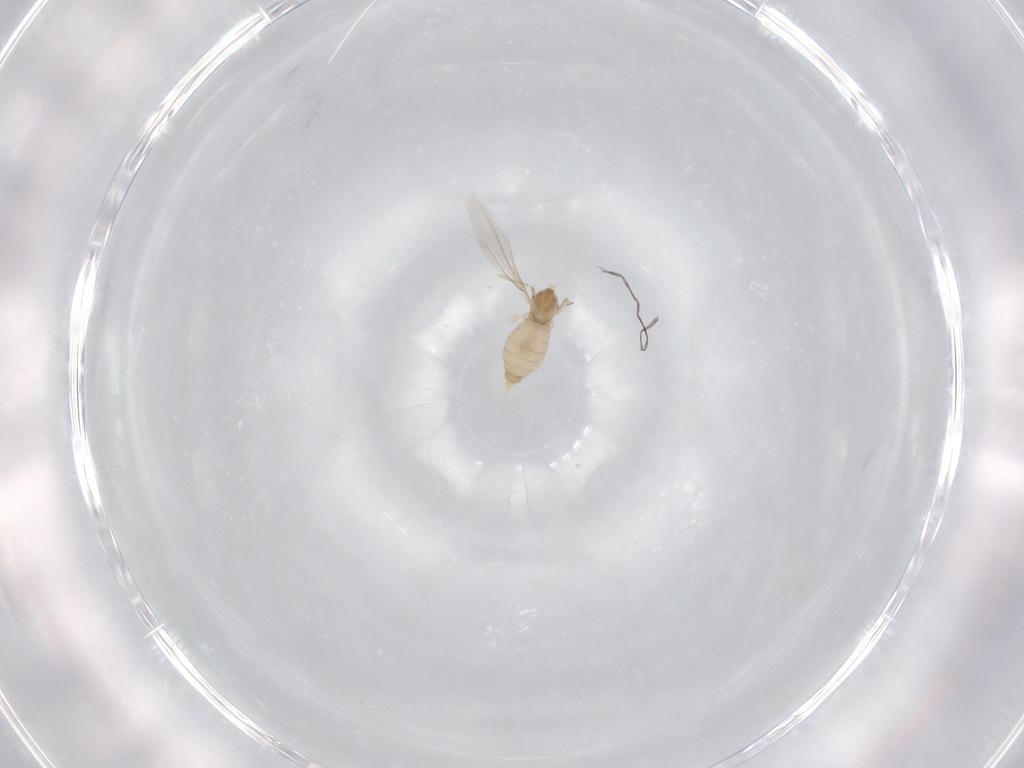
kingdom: Animalia
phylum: Arthropoda
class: Insecta
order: Diptera
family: Cecidomyiidae
